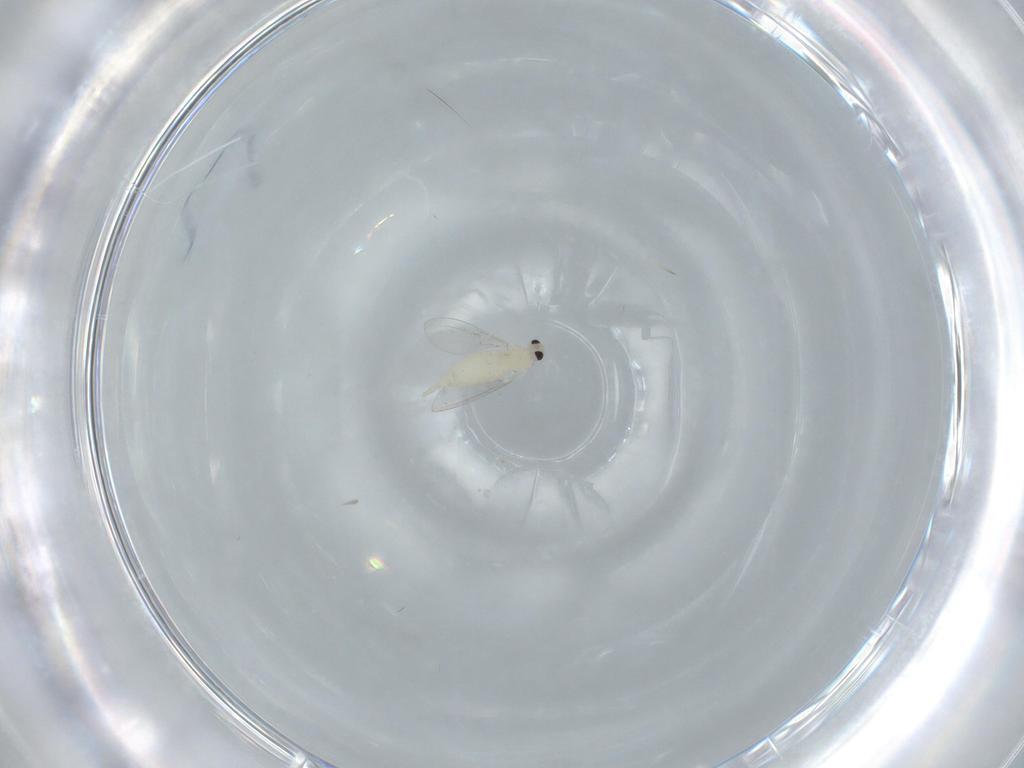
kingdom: Animalia
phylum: Arthropoda
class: Insecta
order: Diptera
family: Cecidomyiidae
